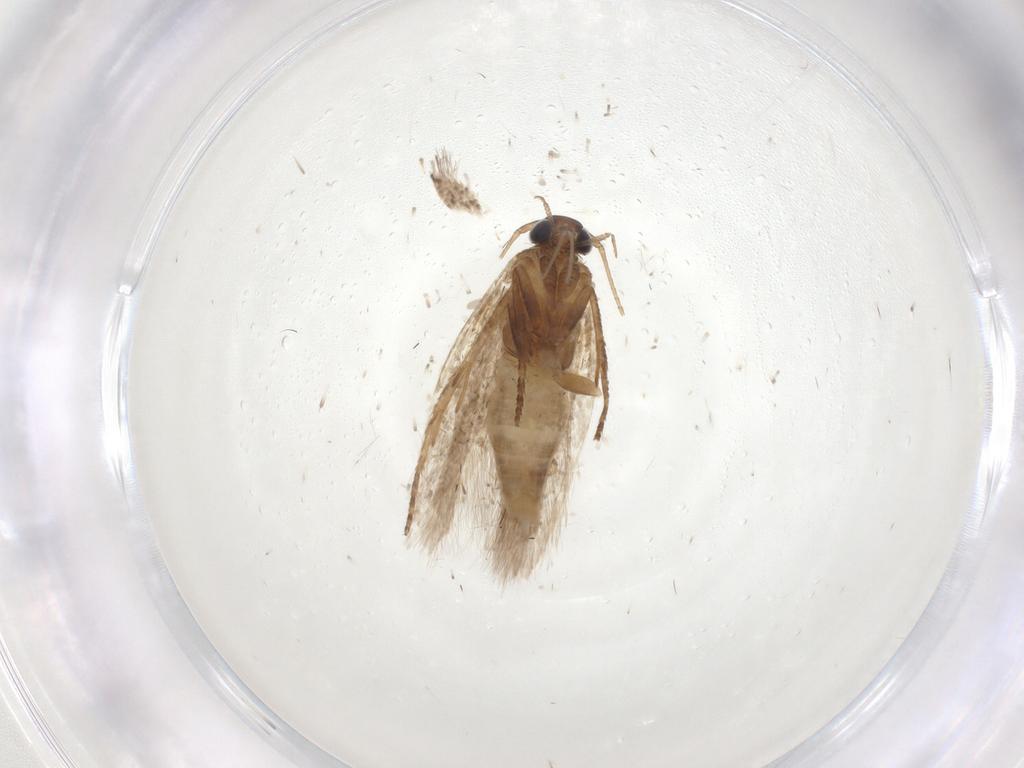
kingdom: Animalia
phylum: Arthropoda
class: Insecta
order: Lepidoptera
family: Gelechiidae
